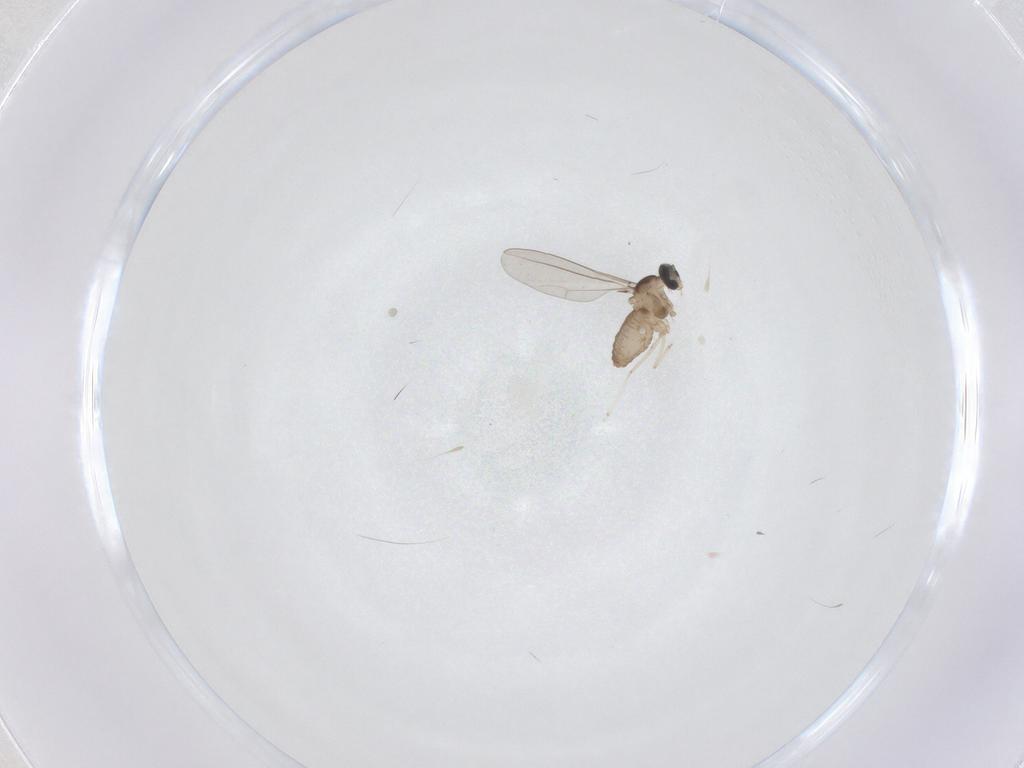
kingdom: Animalia
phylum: Arthropoda
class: Insecta
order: Diptera
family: Cecidomyiidae
